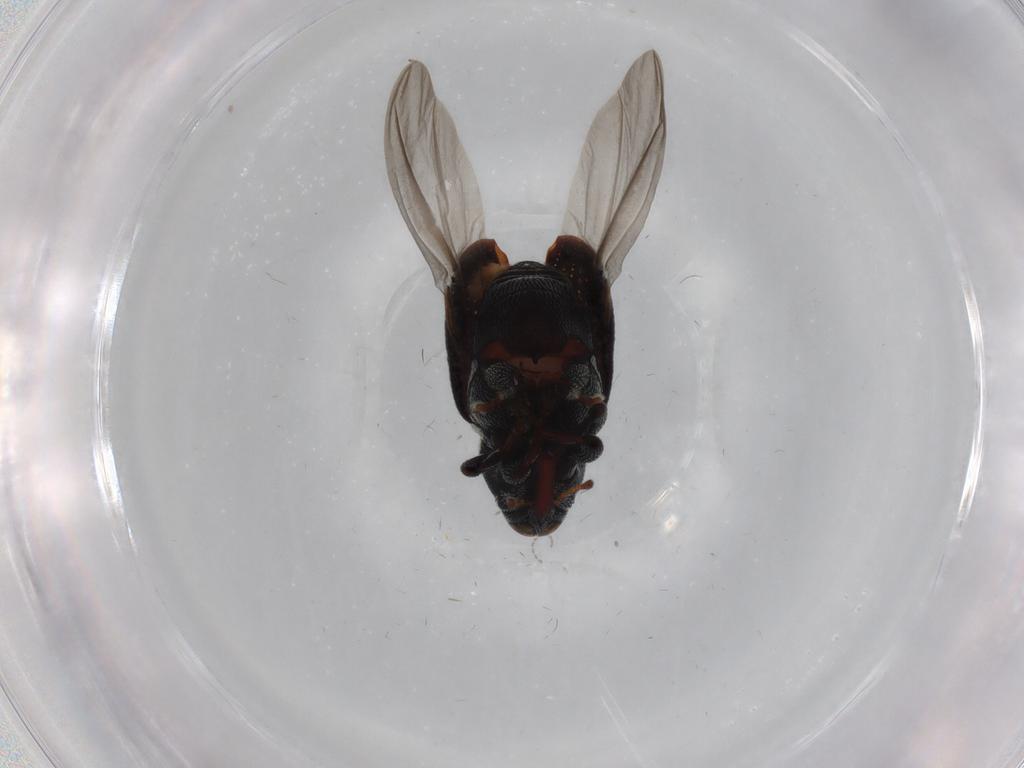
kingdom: Animalia
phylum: Arthropoda
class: Insecta
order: Coleoptera
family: Curculionidae
